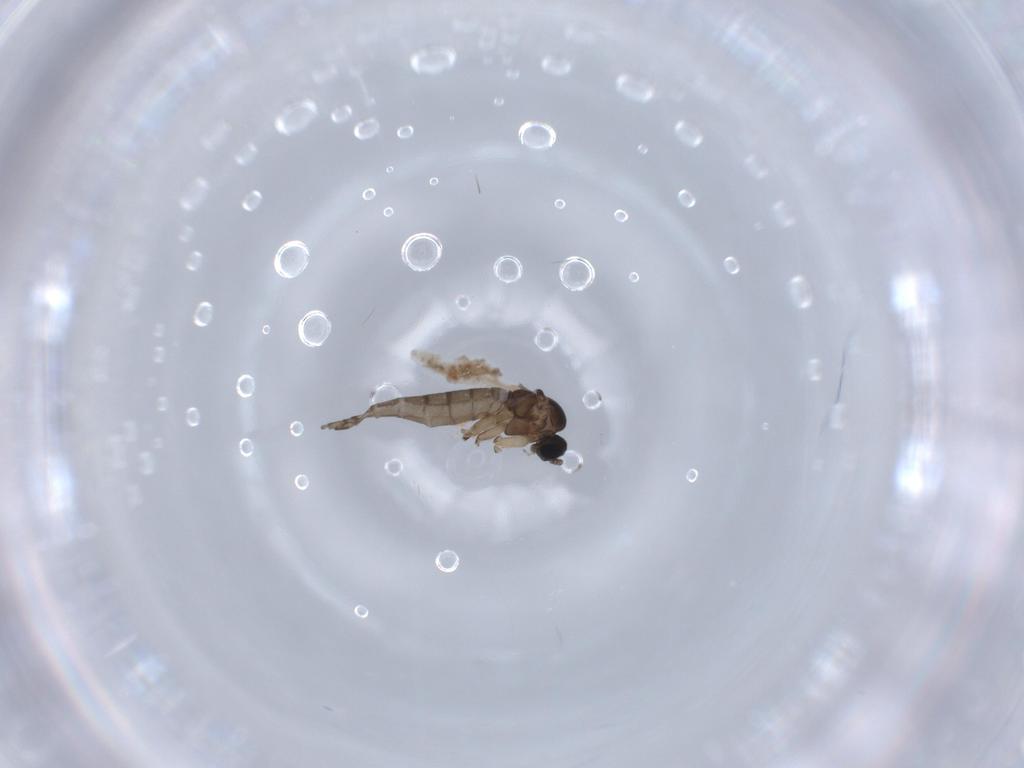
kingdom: Animalia
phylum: Arthropoda
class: Insecta
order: Diptera
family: Sciaridae
